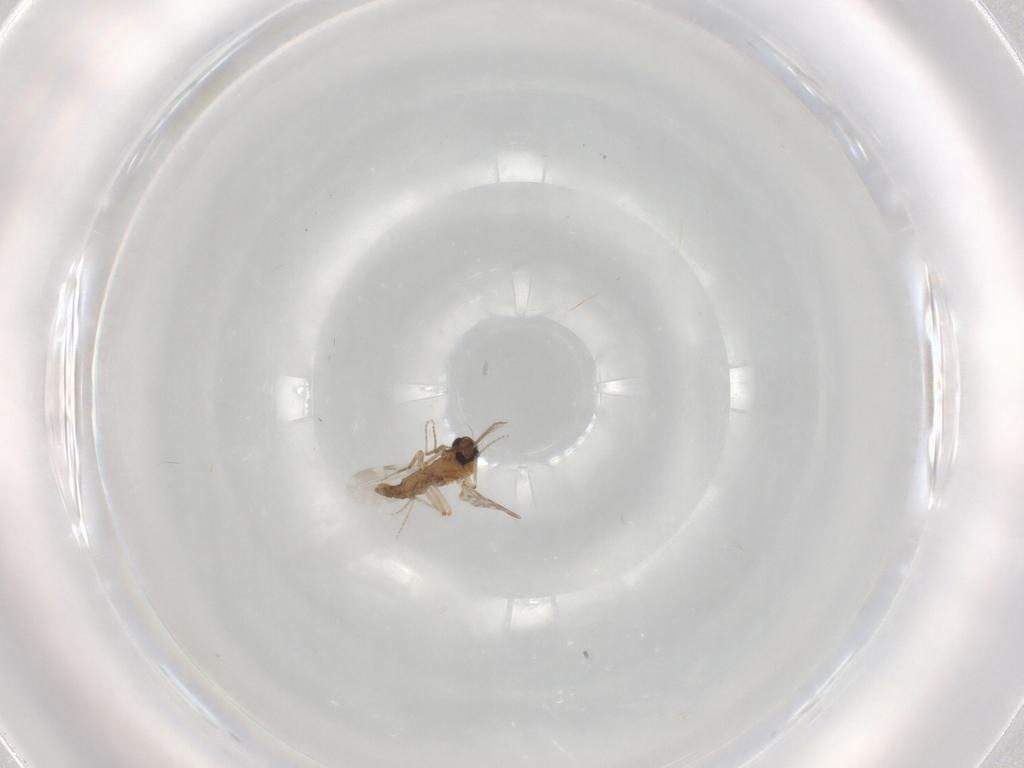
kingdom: Animalia
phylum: Arthropoda
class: Insecta
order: Diptera
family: Ceratopogonidae
